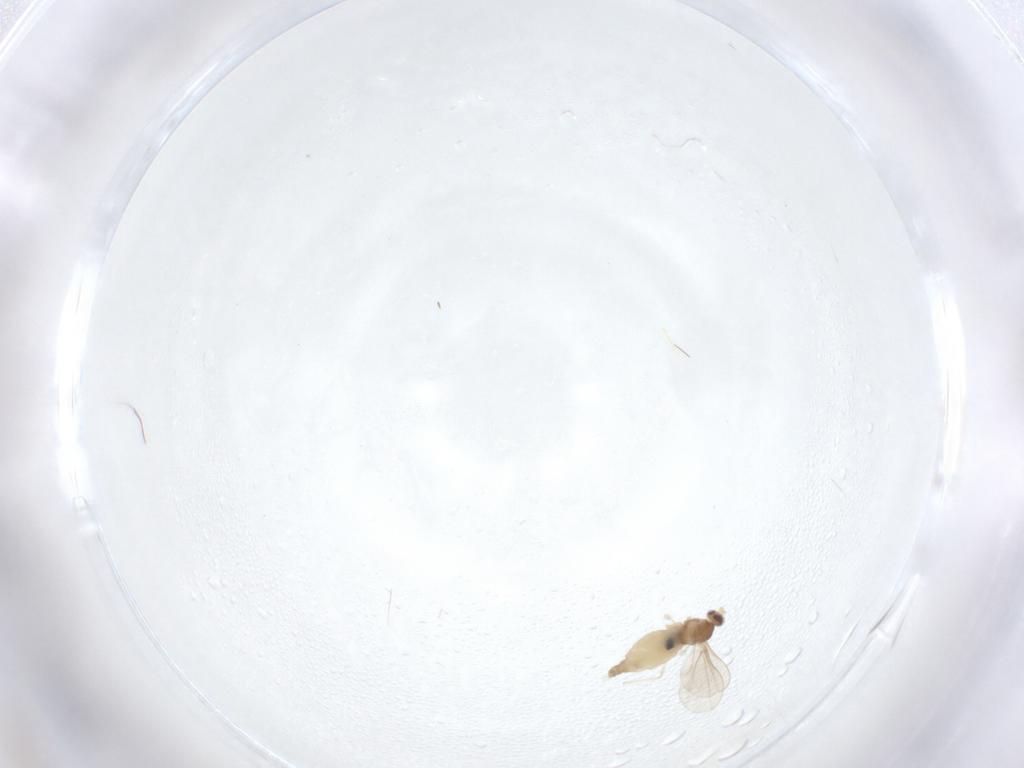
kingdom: Animalia
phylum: Arthropoda
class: Insecta
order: Diptera
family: Cecidomyiidae
